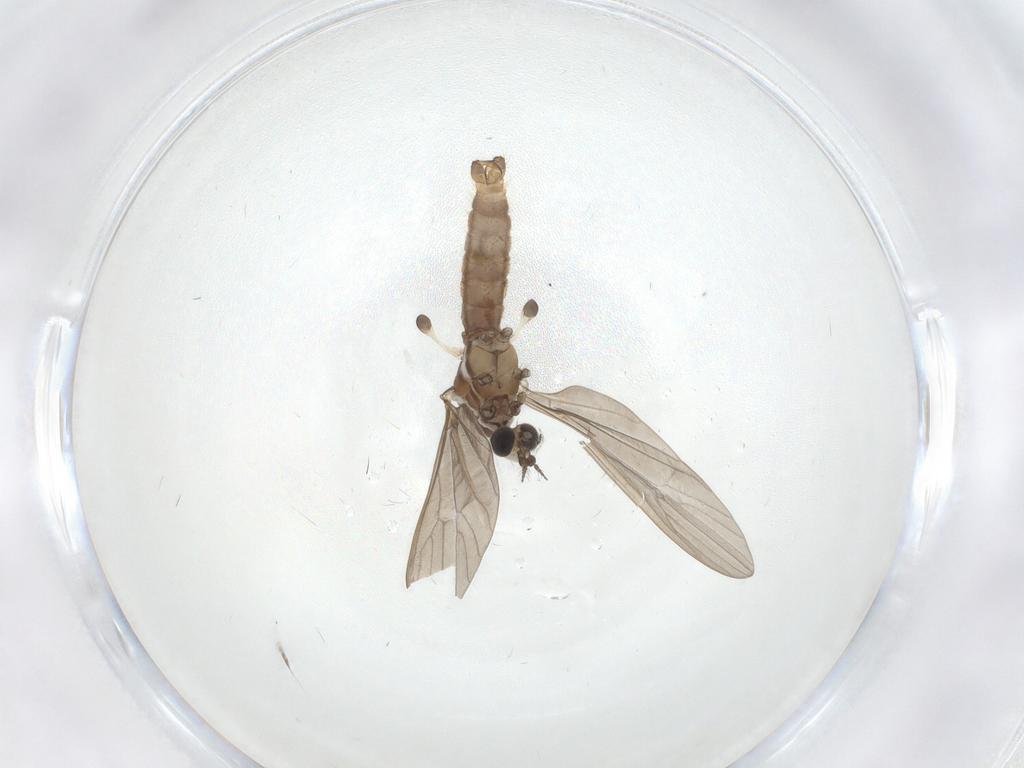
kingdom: Animalia
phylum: Arthropoda
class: Insecta
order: Diptera
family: Limoniidae
